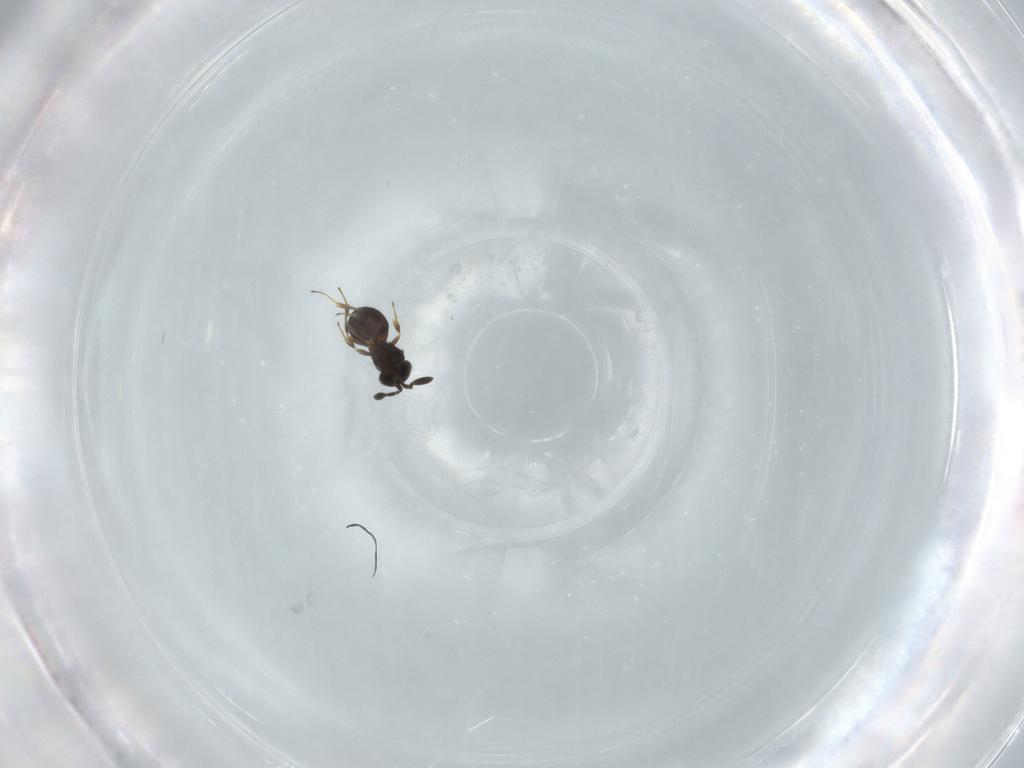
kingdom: Animalia
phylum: Arthropoda
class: Insecta
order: Hymenoptera
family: Scelionidae
